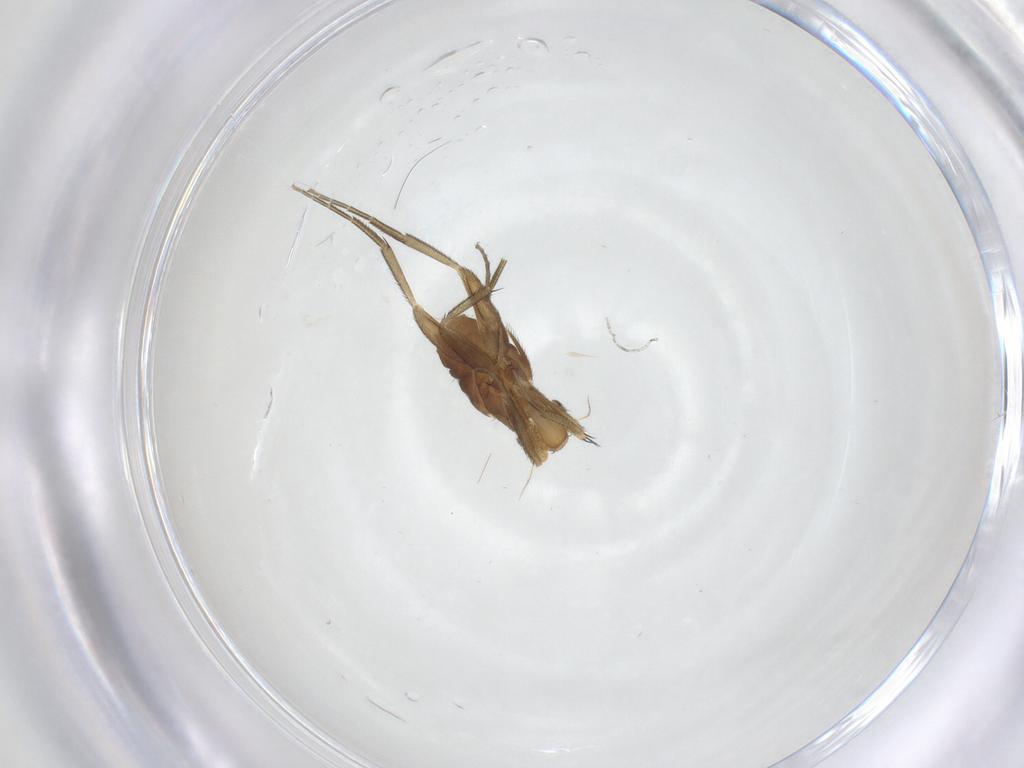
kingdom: Animalia
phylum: Arthropoda
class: Insecta
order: Diptera
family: Phoridae
